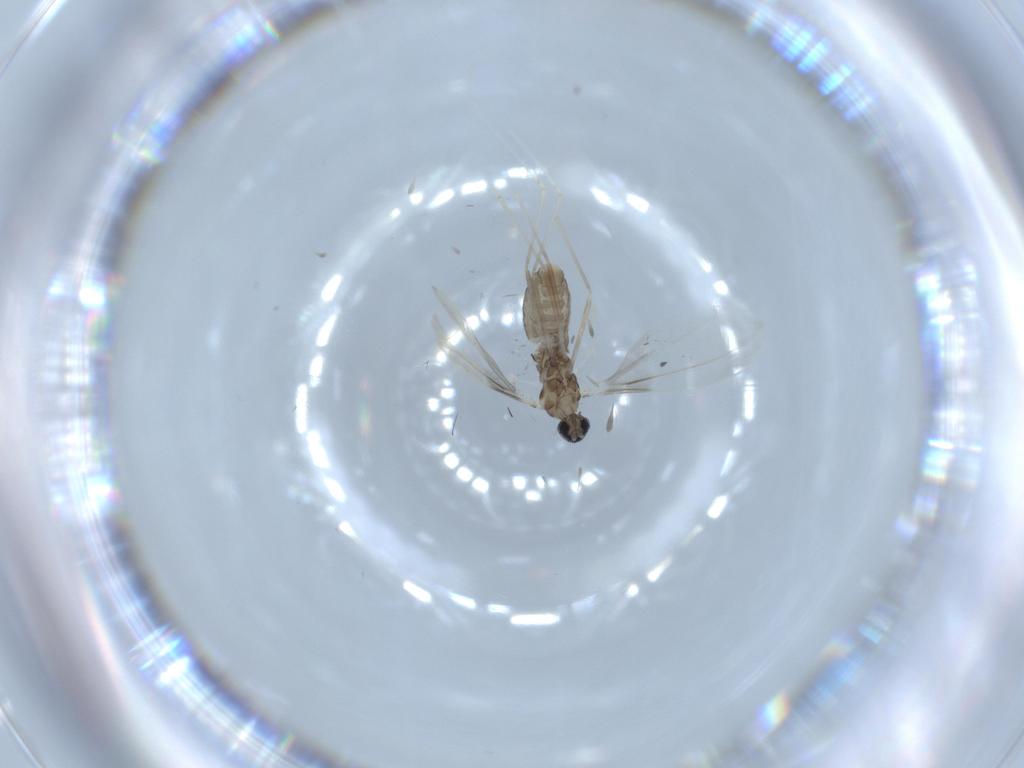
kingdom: Animalia
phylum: Arthropoda
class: Insecta
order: Diptera
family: Cecidomyiidae
